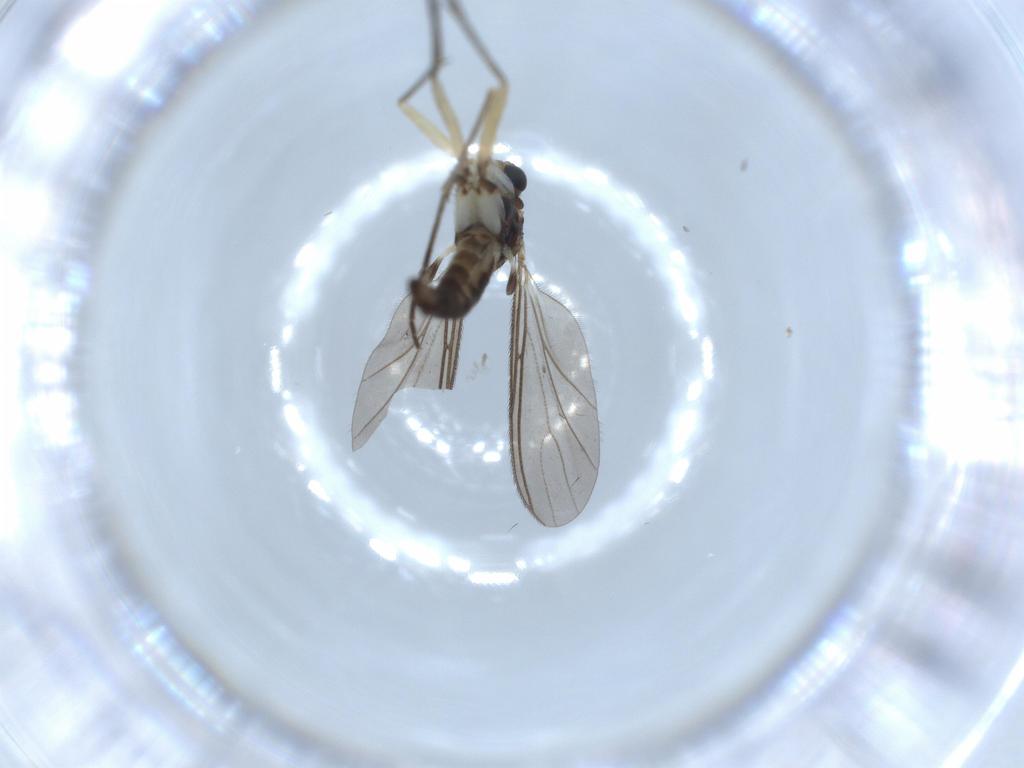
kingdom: Animalia
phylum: Arthropoda
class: Insecta
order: Diptera
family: Sciaridae
